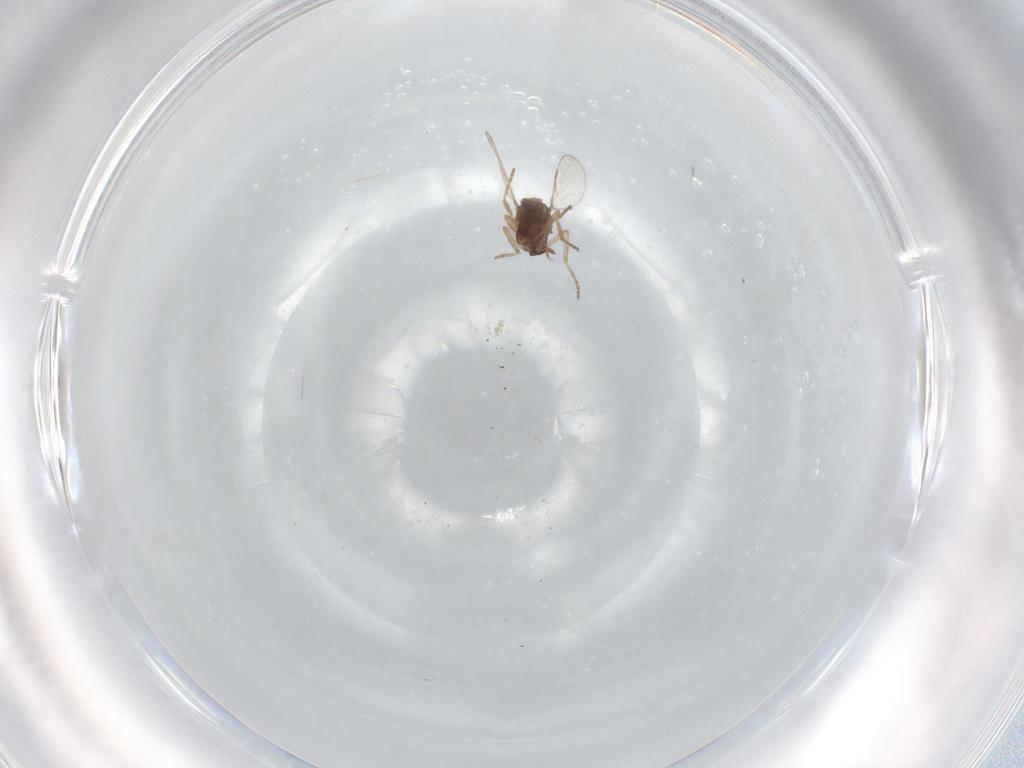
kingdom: Animalia
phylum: Arthropoda
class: Insecta
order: Diptera
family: Ceratopogonidae
